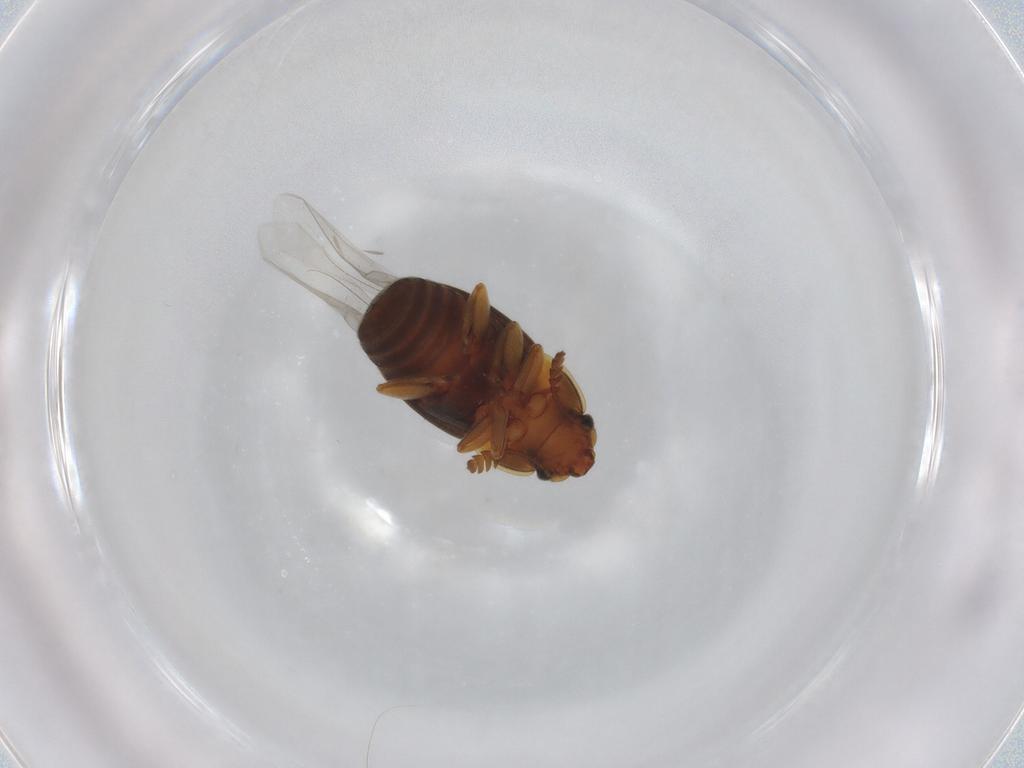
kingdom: Animalia
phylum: Arthropoda
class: Insecta
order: Coleoptera
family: Nitidulidae
